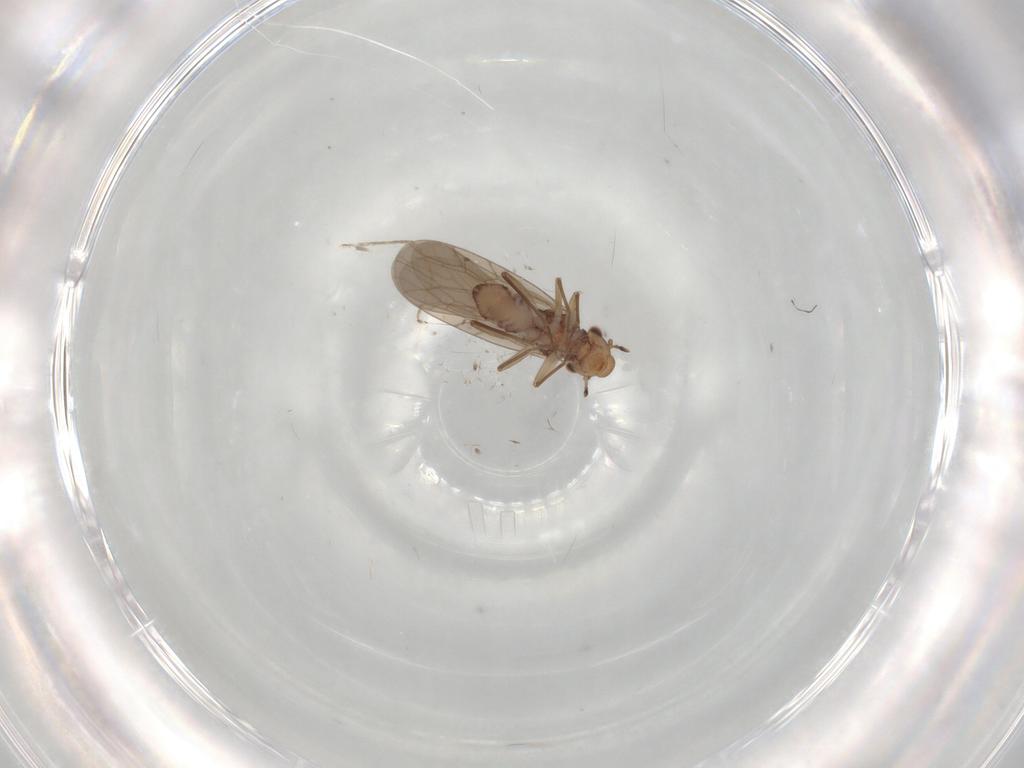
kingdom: Animalia
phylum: Arthropoda
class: Insecta
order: Psocodea
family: Lepidopsocidae
